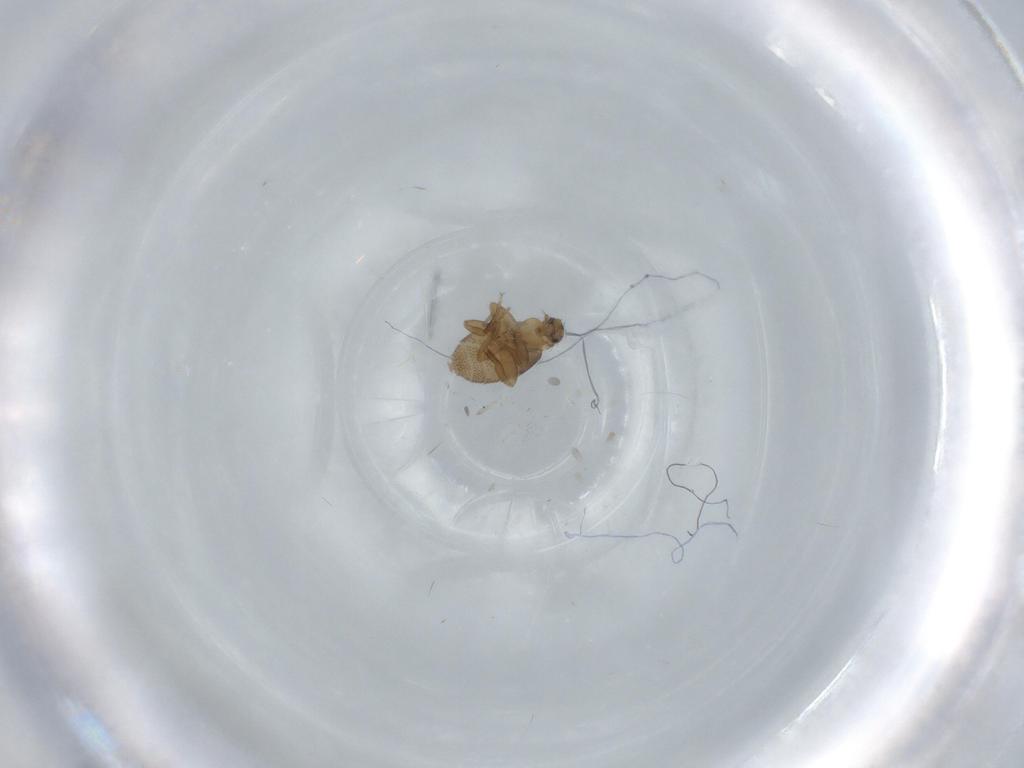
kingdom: Animalia
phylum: Arthropoda
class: Insecta
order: Diptera
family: Phoridae
